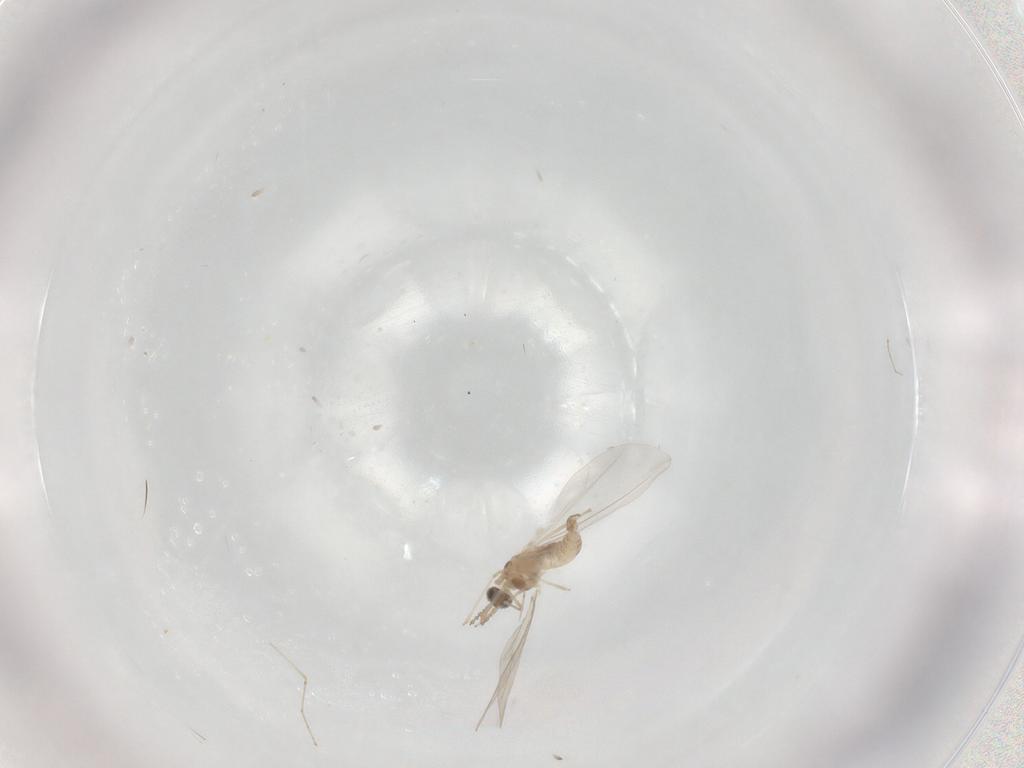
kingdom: Animalia
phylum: Arthropoda
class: Insecta
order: Diptera
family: Cecidomyiidae
